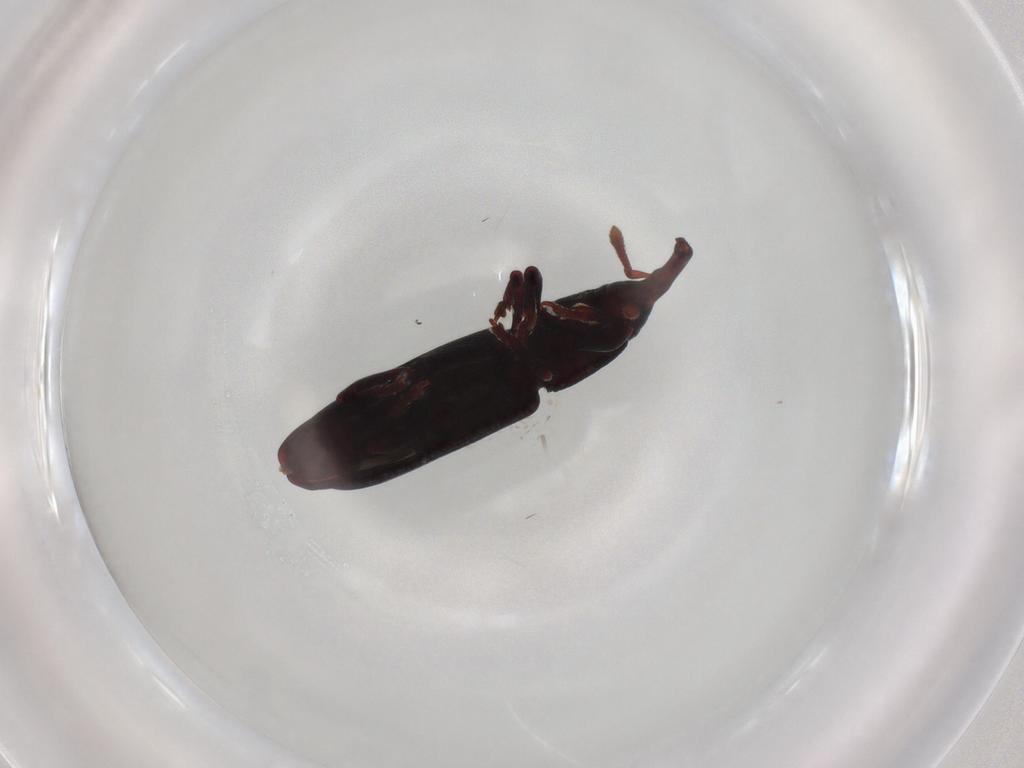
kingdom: Animalia
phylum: Arthropoda
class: Insecta
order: Coleoptera
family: Curculionidae
